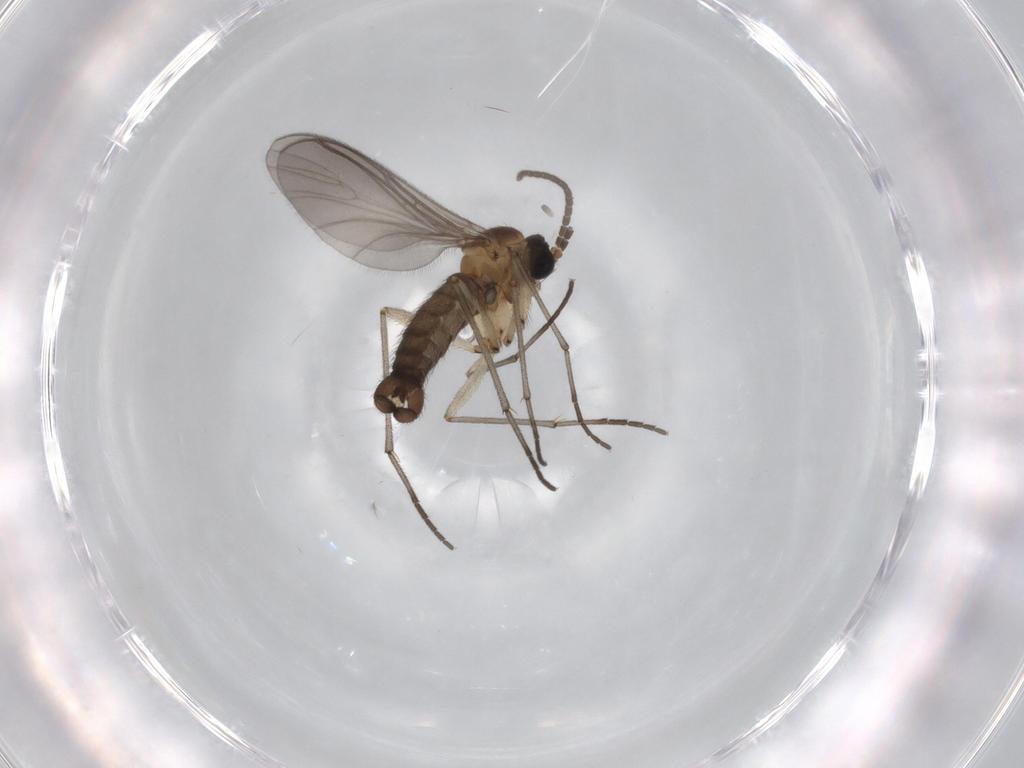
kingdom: Animalia
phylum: Arthropoda
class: Insecta
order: Diptera
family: Sciaridae
